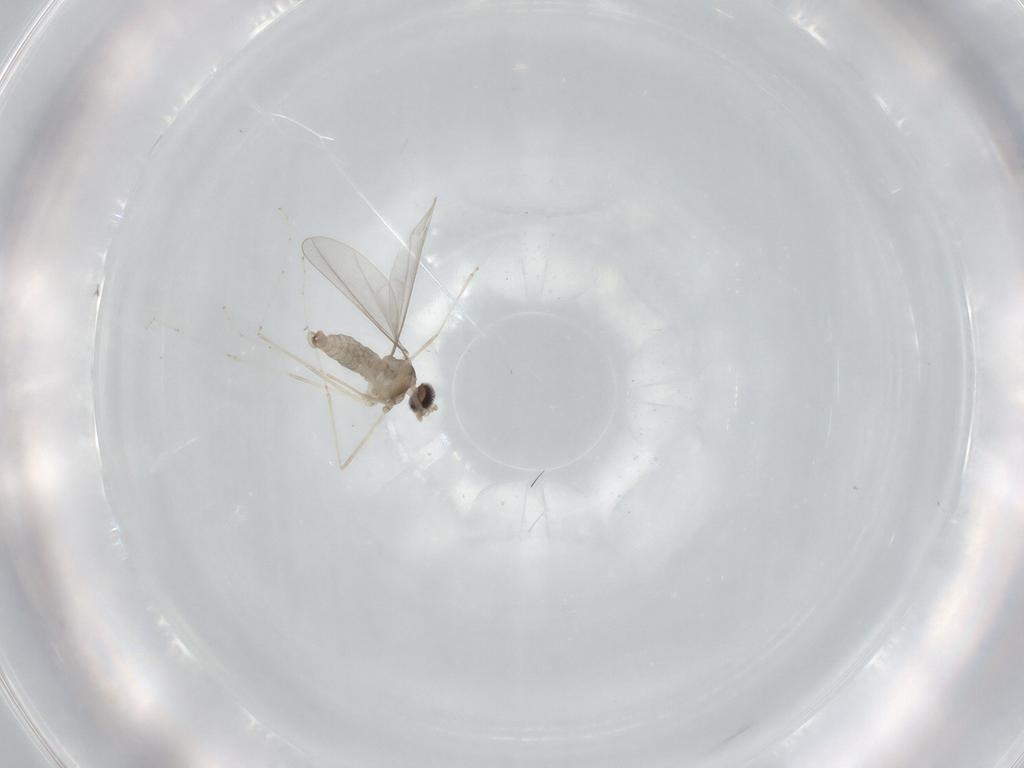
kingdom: Animalia
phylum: Arthropoda
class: Insecta
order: Diptera
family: Cecidomyiidae
